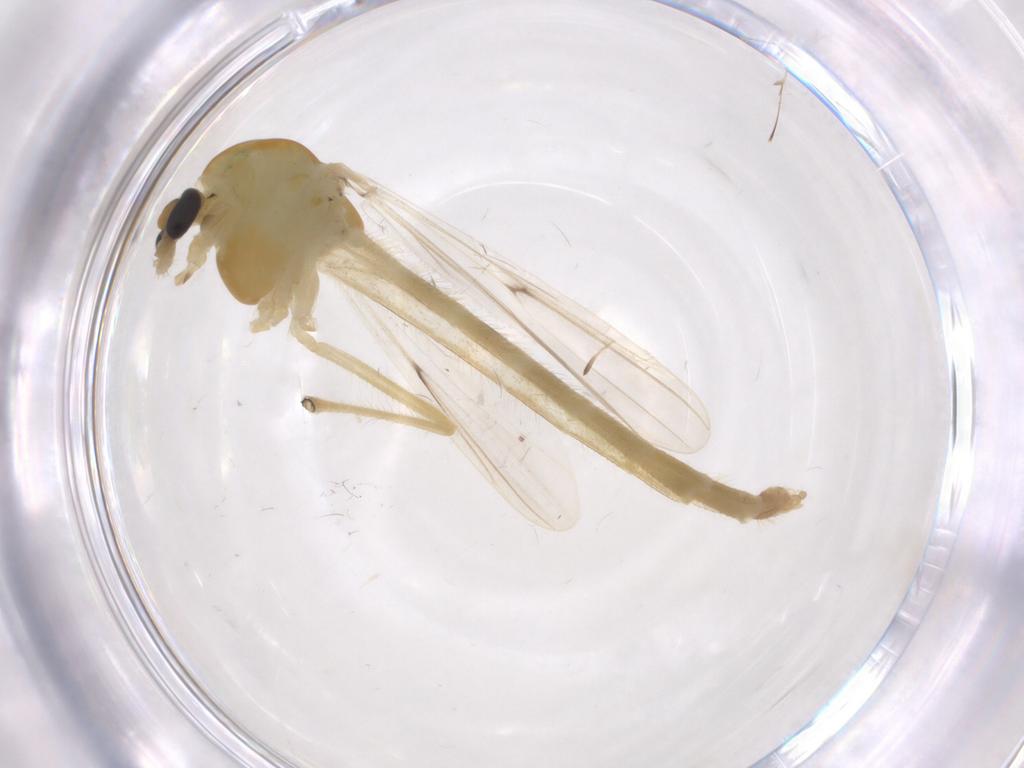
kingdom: Animalia
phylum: Arthropoda
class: Insecta
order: Diptera
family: Chironomidae
